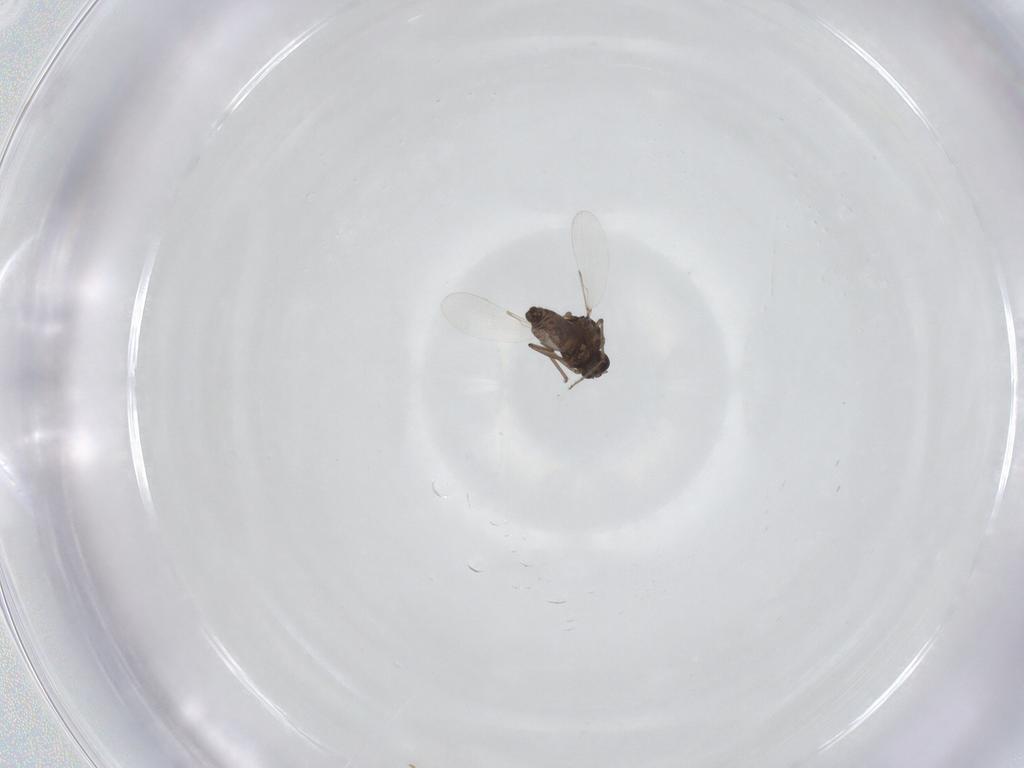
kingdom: Animalia
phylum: Arthropoda
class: Insecta
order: Diptera
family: Ceratopogonidae
